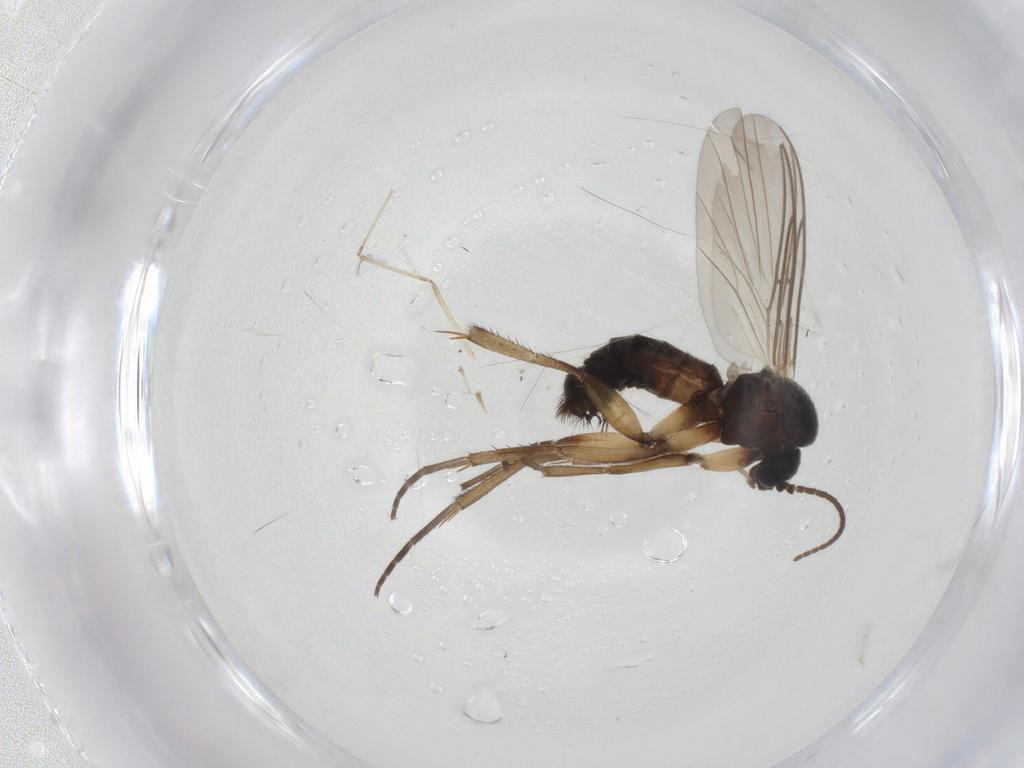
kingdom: Animalia
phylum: Arthropoda
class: Insecta
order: Diptera
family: Mycetophilidae
